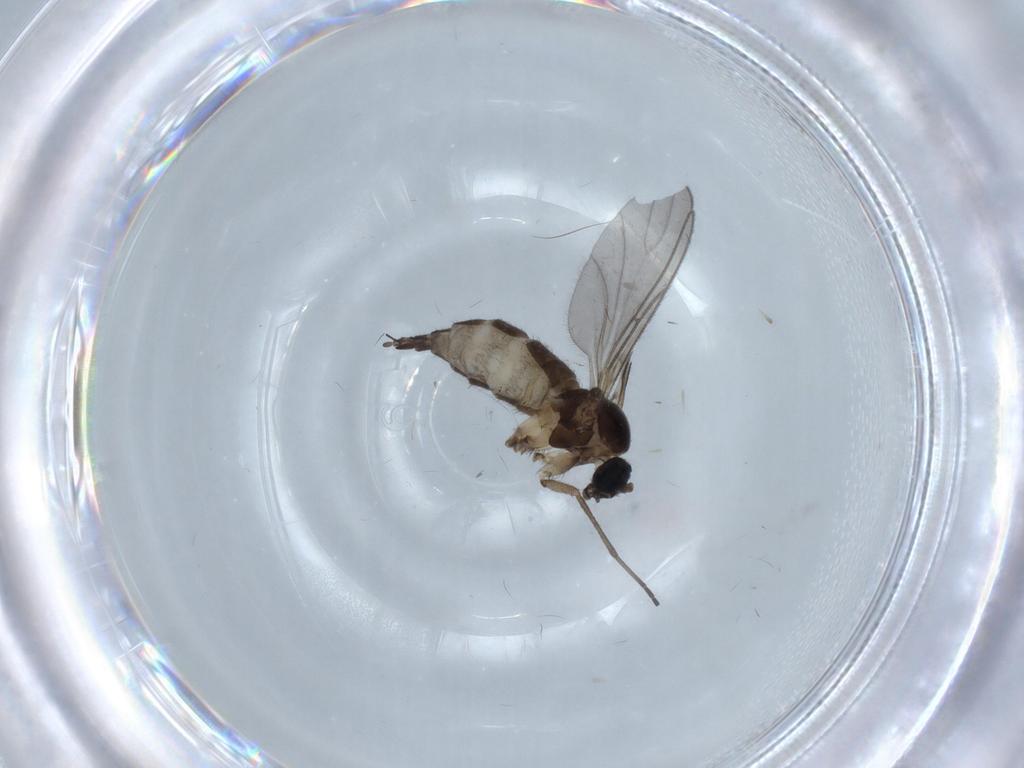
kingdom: Animalia
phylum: Arthropoda
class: Insecta
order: Diptera
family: Sciaridae
